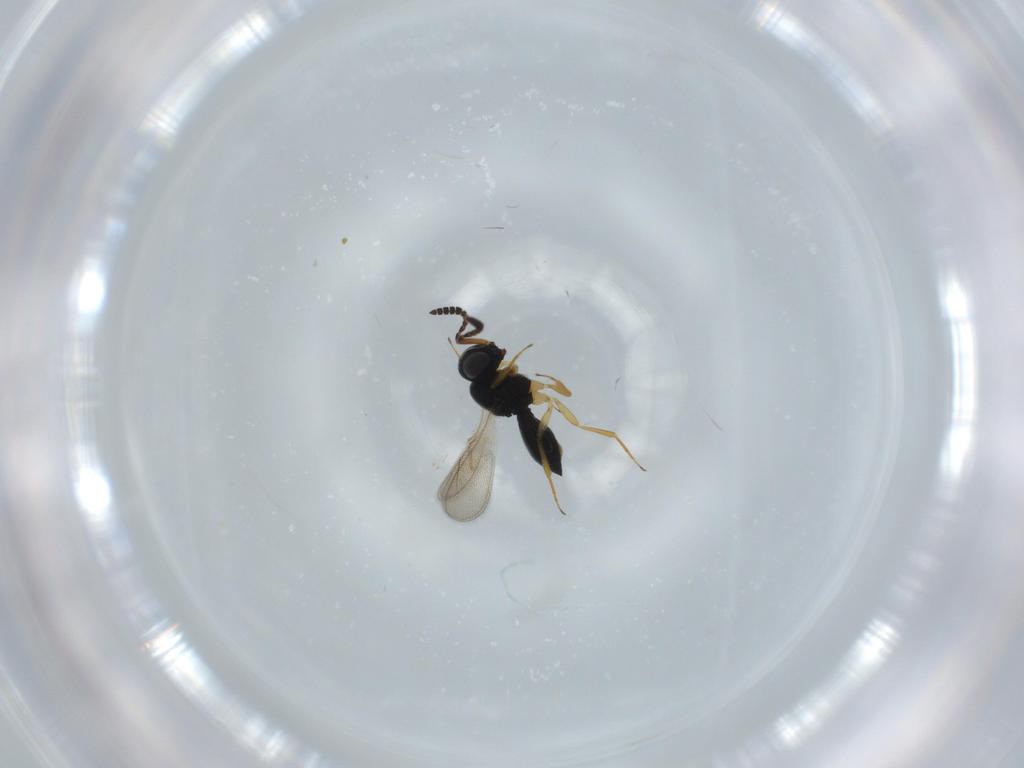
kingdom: Animalia
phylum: Arthropoda
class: Insecta
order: Hymenoptera
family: Scelionidae
